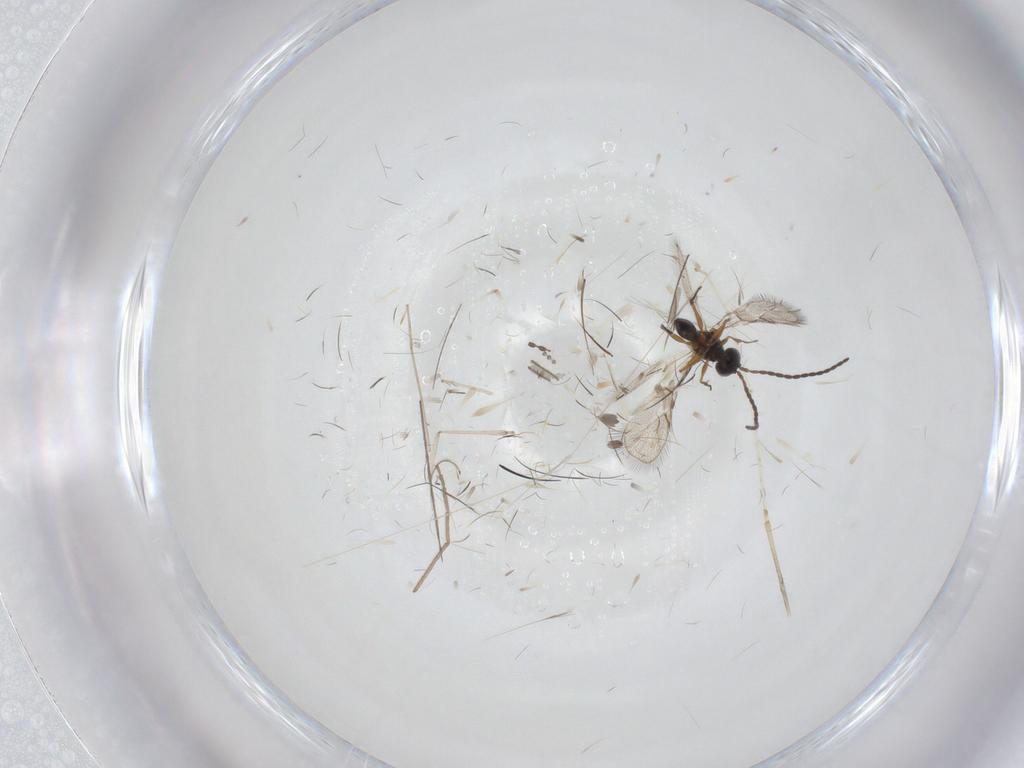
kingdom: Animalia
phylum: Arthropoda
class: Insecta
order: Diptera
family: Cecidomyiidae
